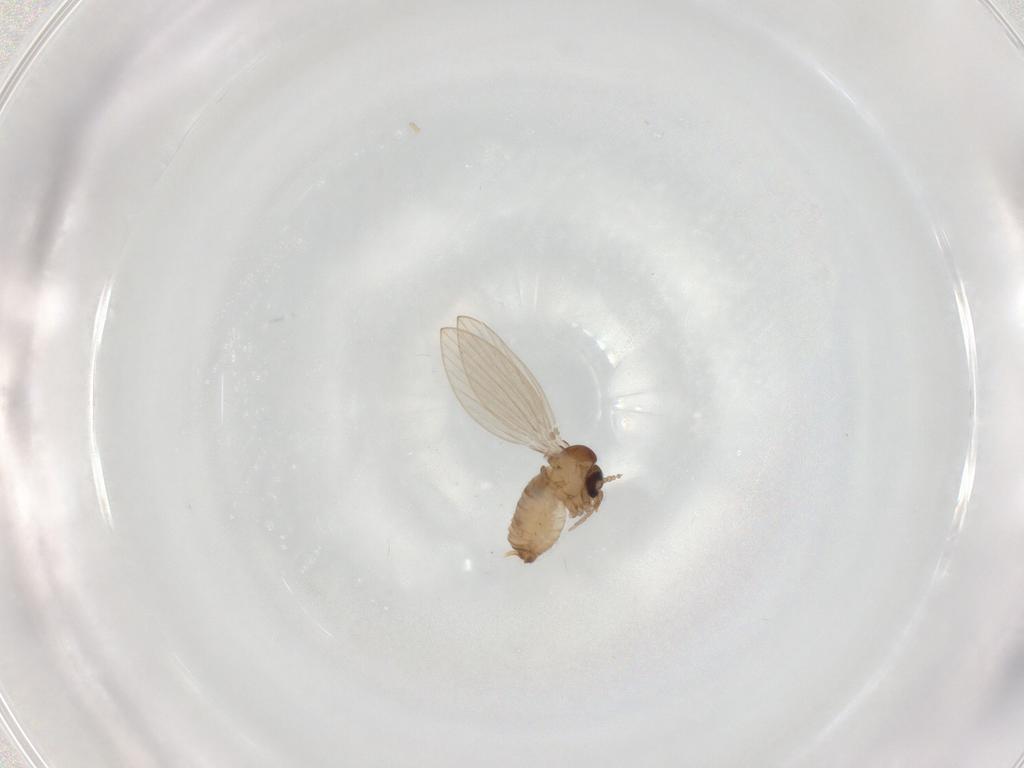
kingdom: Animalia
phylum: Arthropoda
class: Insecta
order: Diptera
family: Psychodidae
